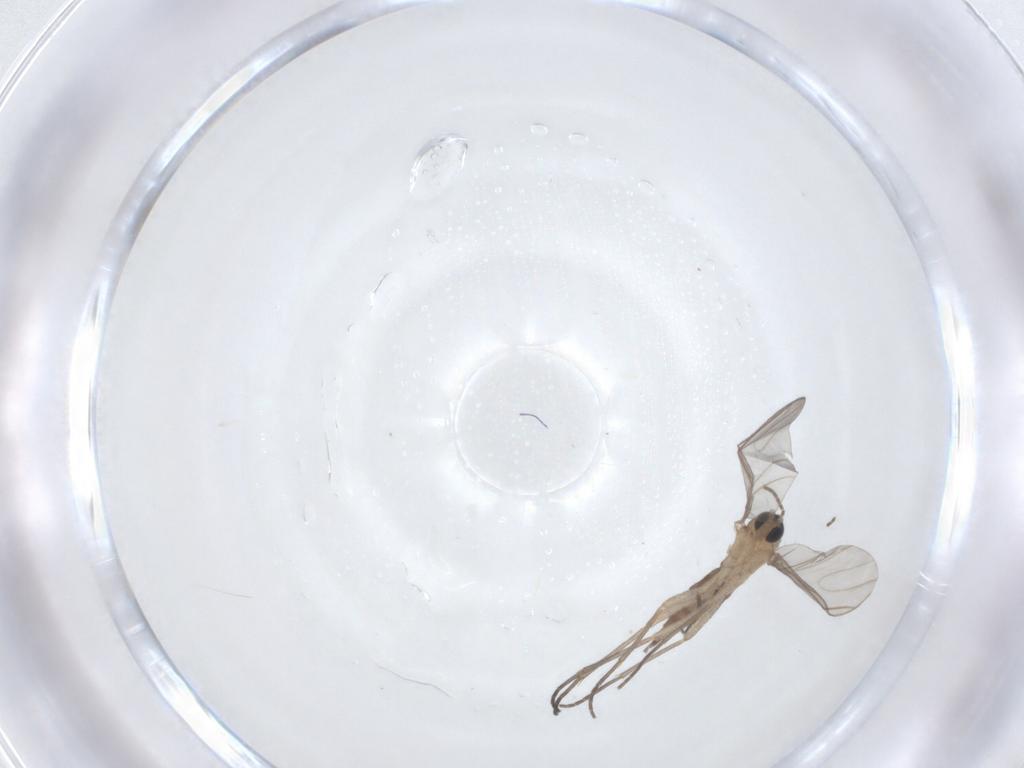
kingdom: Animalia
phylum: Arthropoda
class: Insecta
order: Diptera
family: Sciaridae
